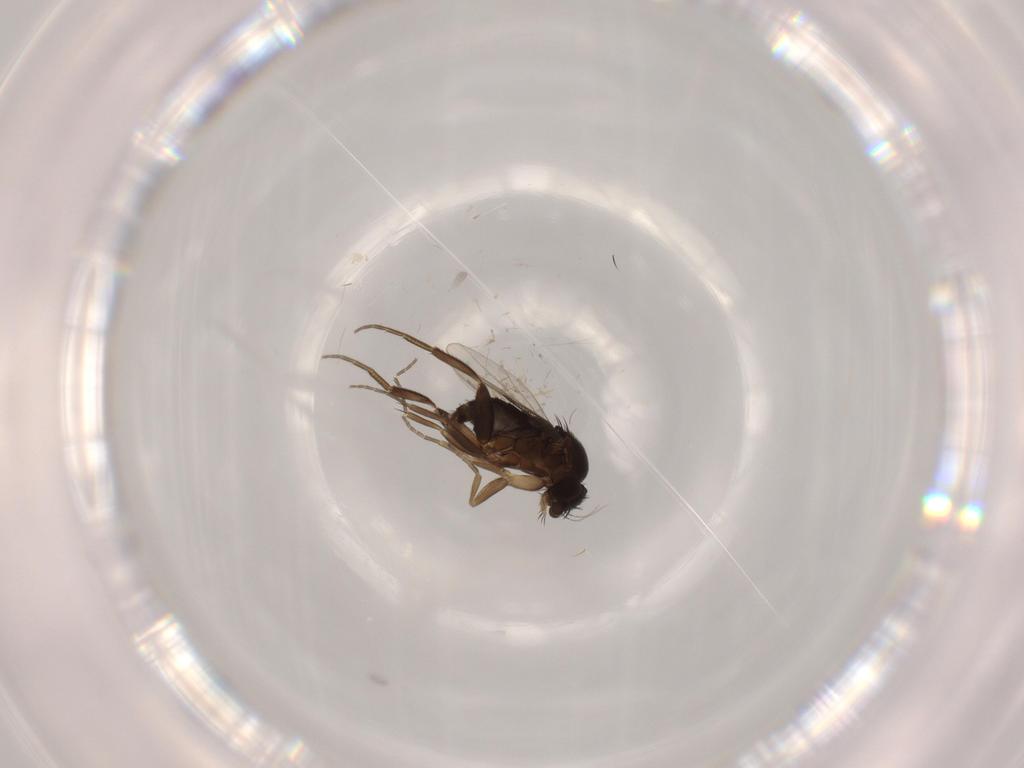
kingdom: Animalia
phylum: Arthropoda
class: Insecta
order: Diptera
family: Phoridae
